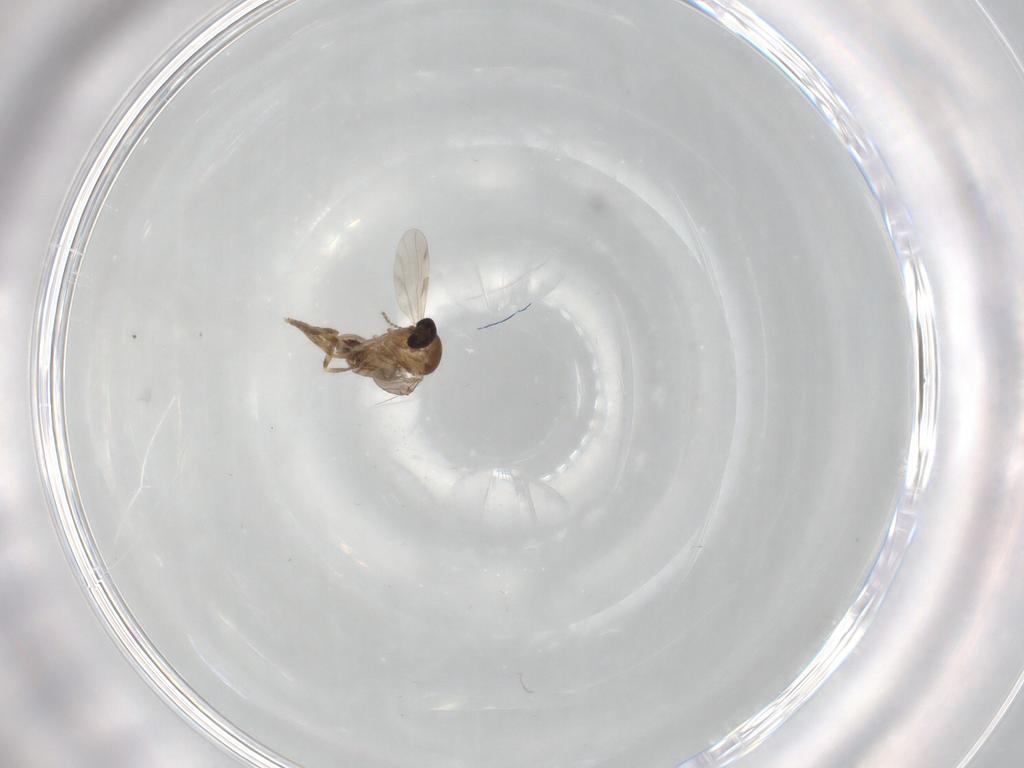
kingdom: Animalia
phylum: Arthropoda
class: Insecta
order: Diptera
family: Ceratopogonidae
